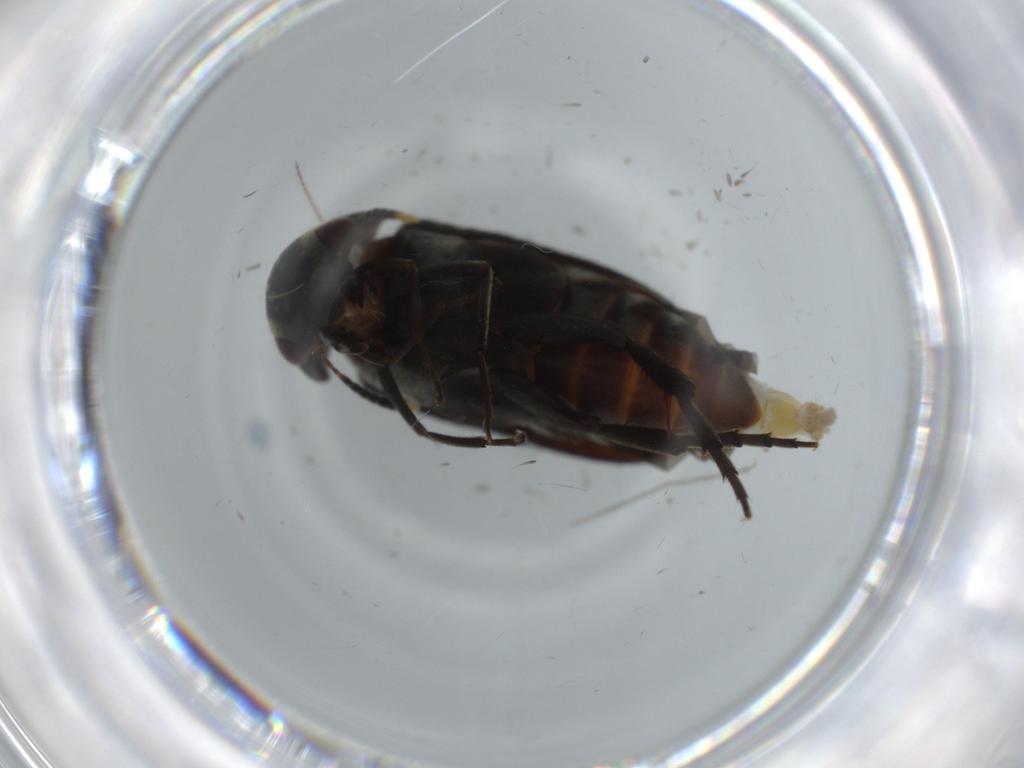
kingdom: Animalia
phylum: Arthropoda
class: Insecta
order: Coleoptera
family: Mordellidae
